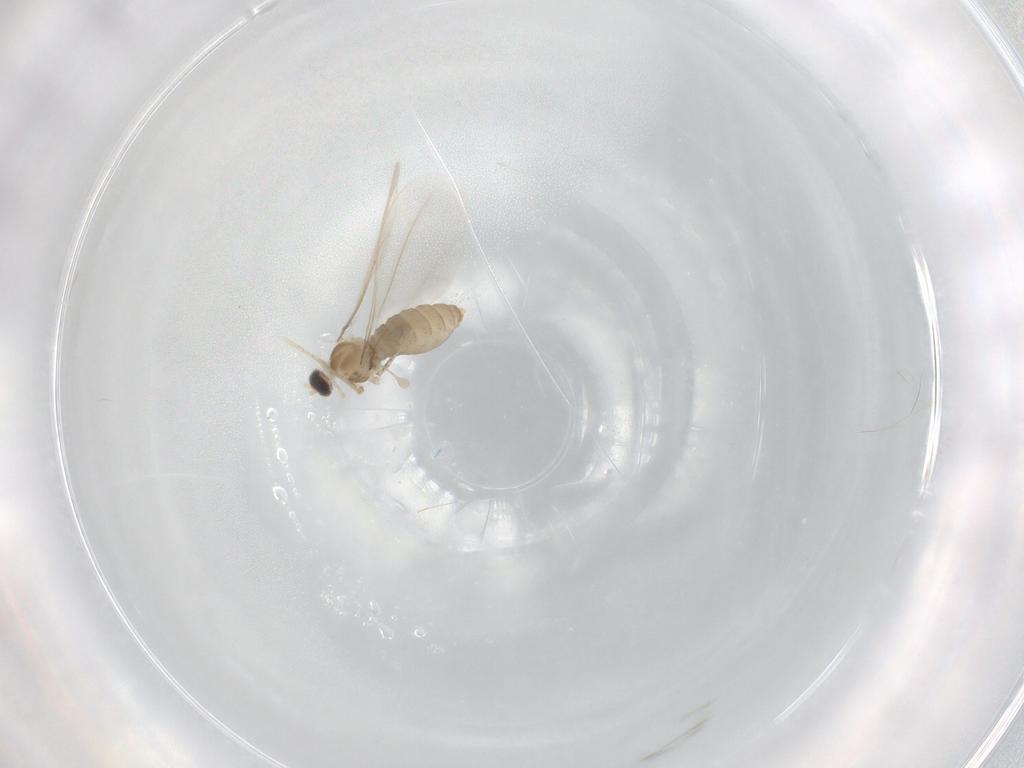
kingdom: Animalia
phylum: Arthropoda
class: Insecta
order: Diptera
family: Cecidomyiidae
